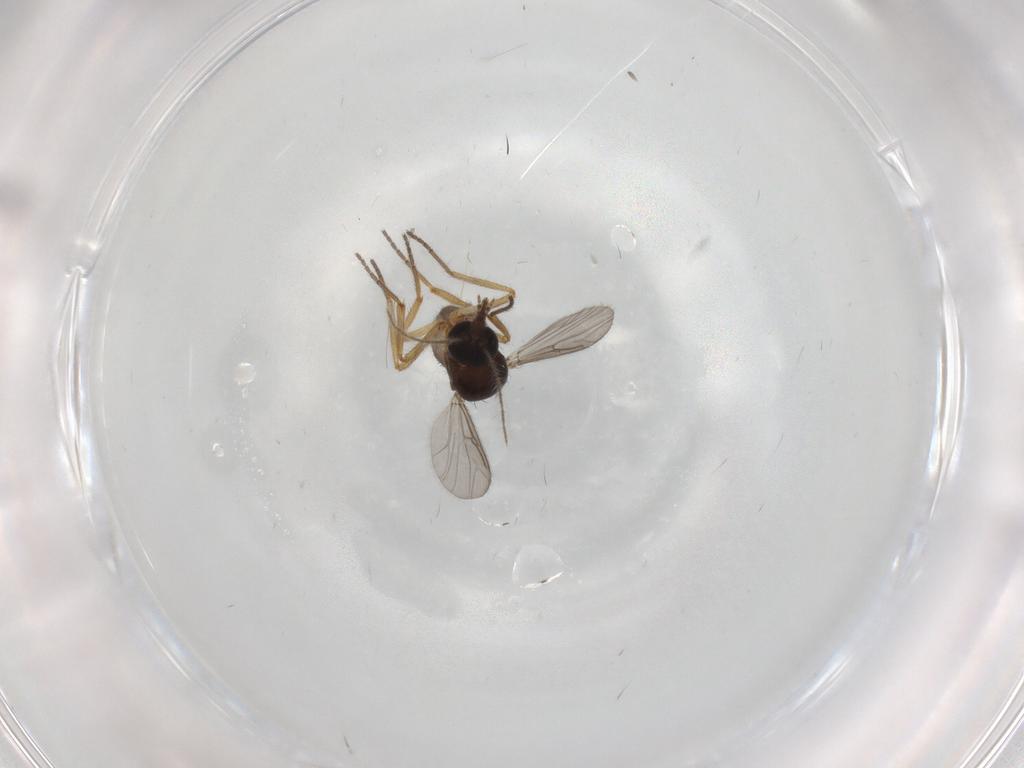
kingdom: Animalia
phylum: Arthropoda
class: Insecta
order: Diptera
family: Ceratopogonidae
